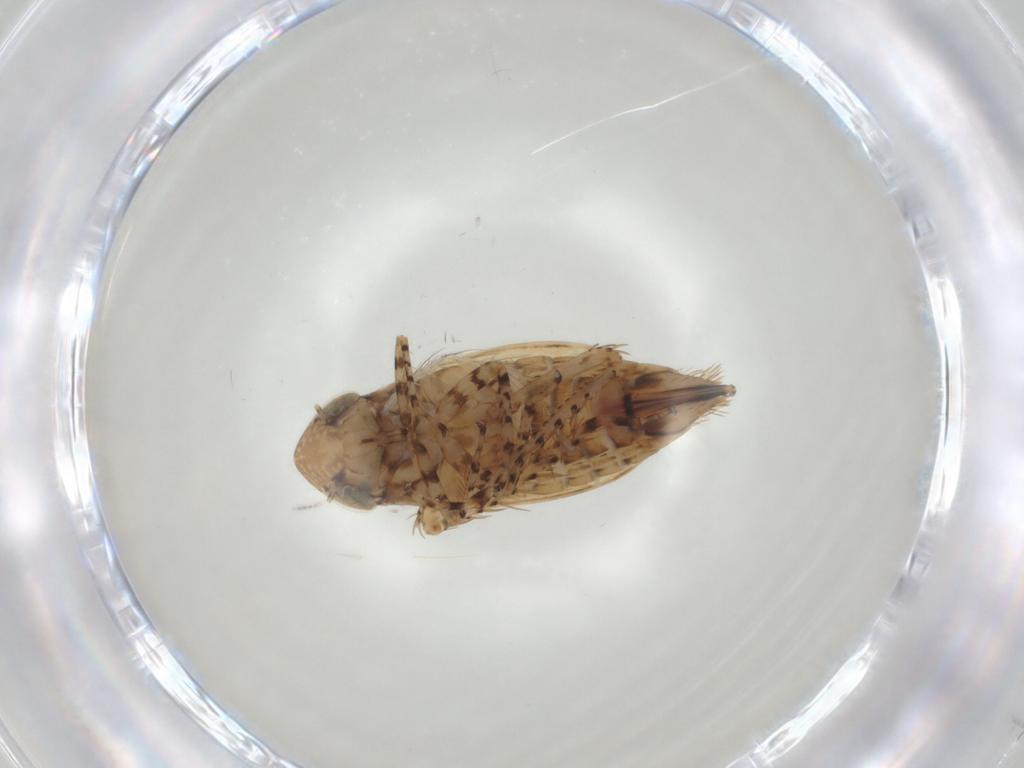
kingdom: Animalia
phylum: Arthropoda
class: Insecta
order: Hemiptera
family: Cicadellidae
